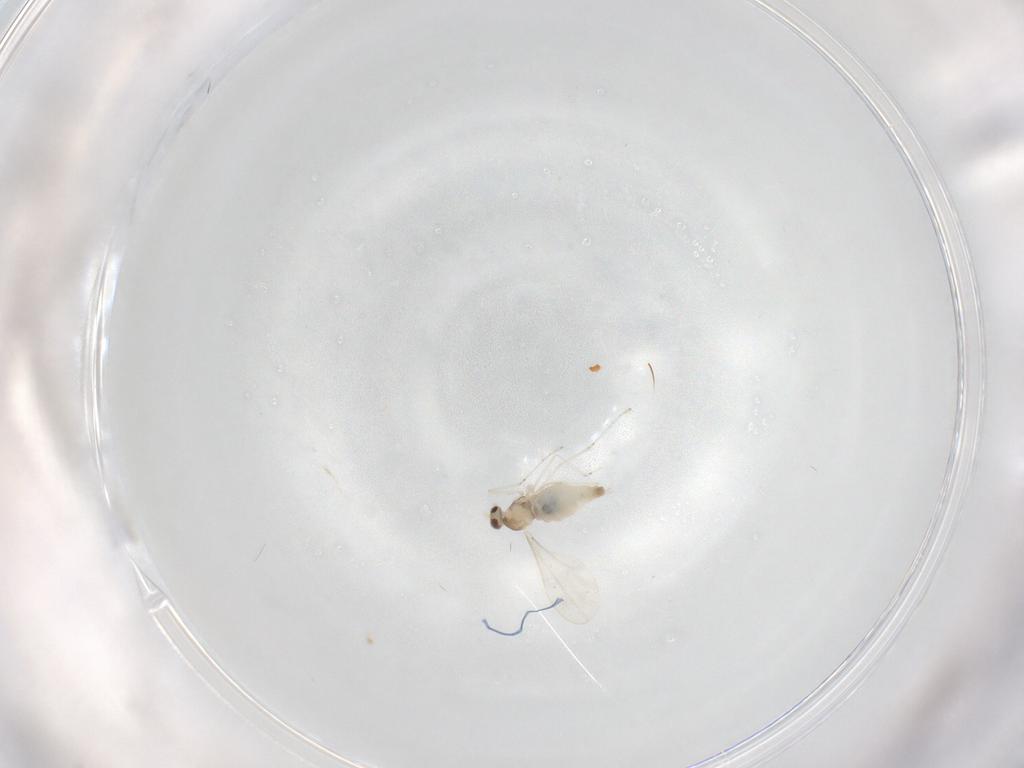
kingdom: Animalia
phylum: Arthropoda
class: Insecta
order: Diptera
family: Cecidomyiidae
